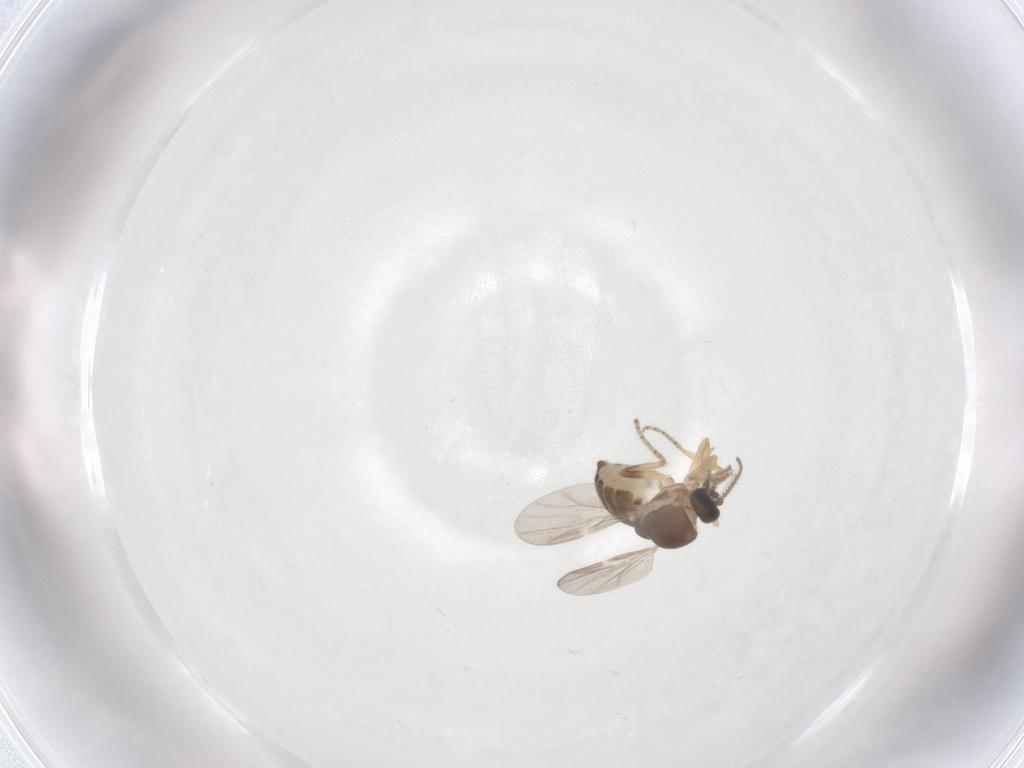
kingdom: Animalia
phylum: Arthropoda
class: Insecta
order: Diptera
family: Ceratopogonidae
